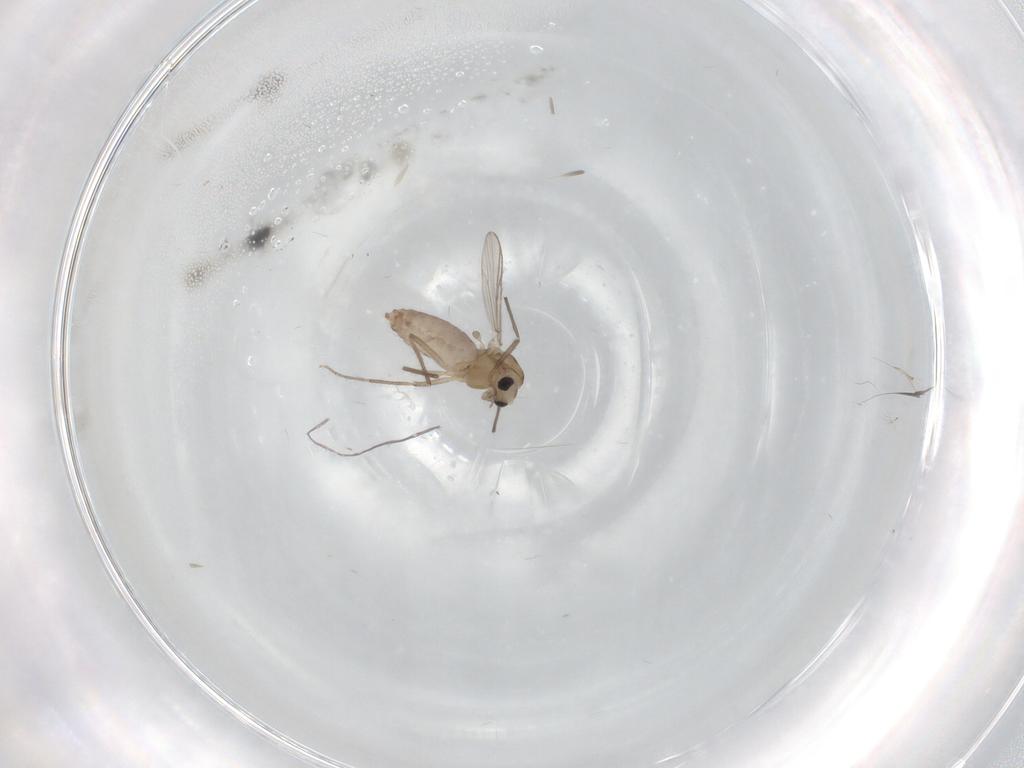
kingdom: Animalia
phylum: Arthropoda
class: Insecta
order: Diptera
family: Chironomidae
